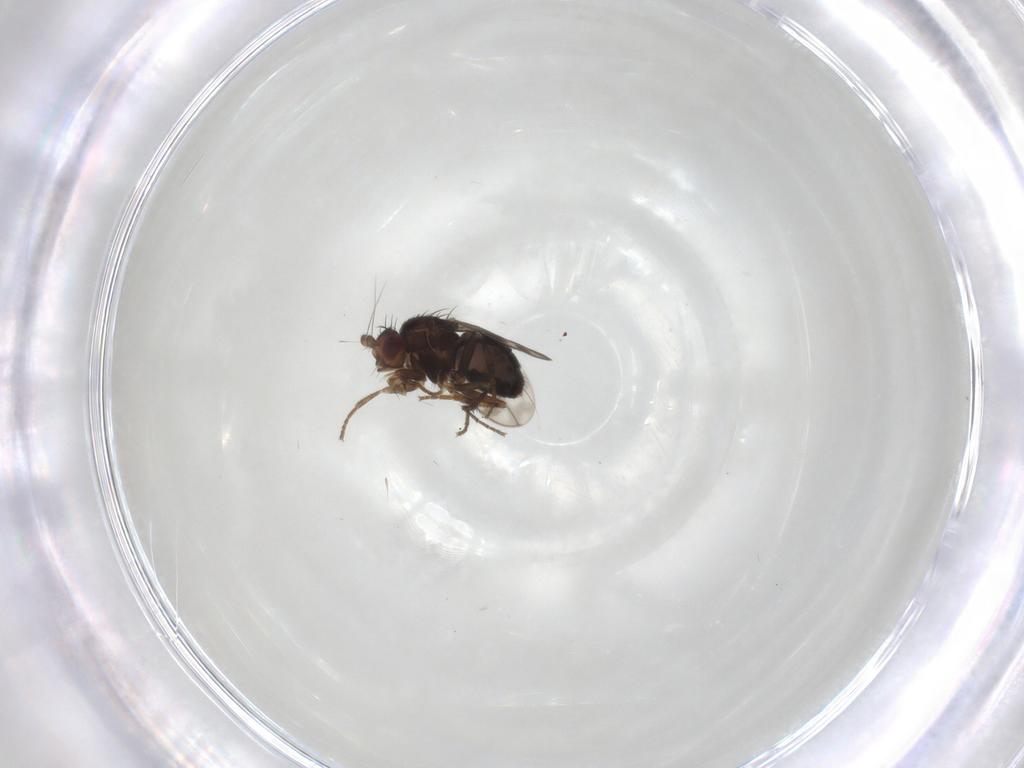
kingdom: Animalia
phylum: Arthropoda
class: Insecta
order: Diptera
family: Sphaeroceridae
